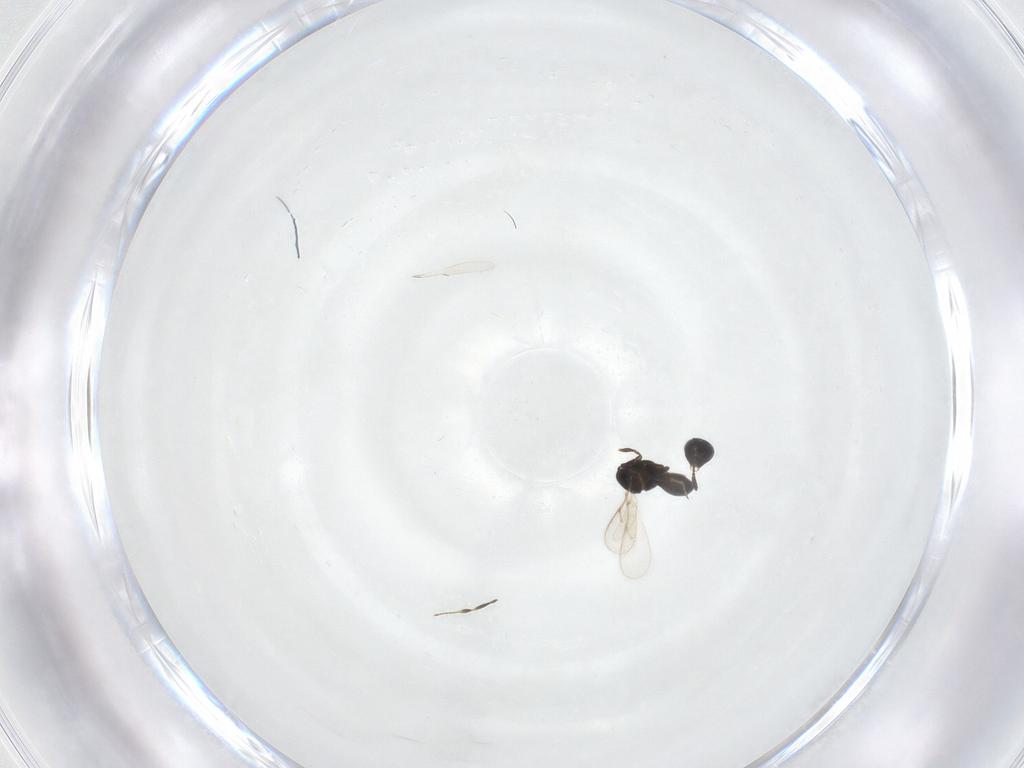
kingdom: Animalia
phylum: Arthropoda
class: Insecta
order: Hymenoptera
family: Scelionidae
